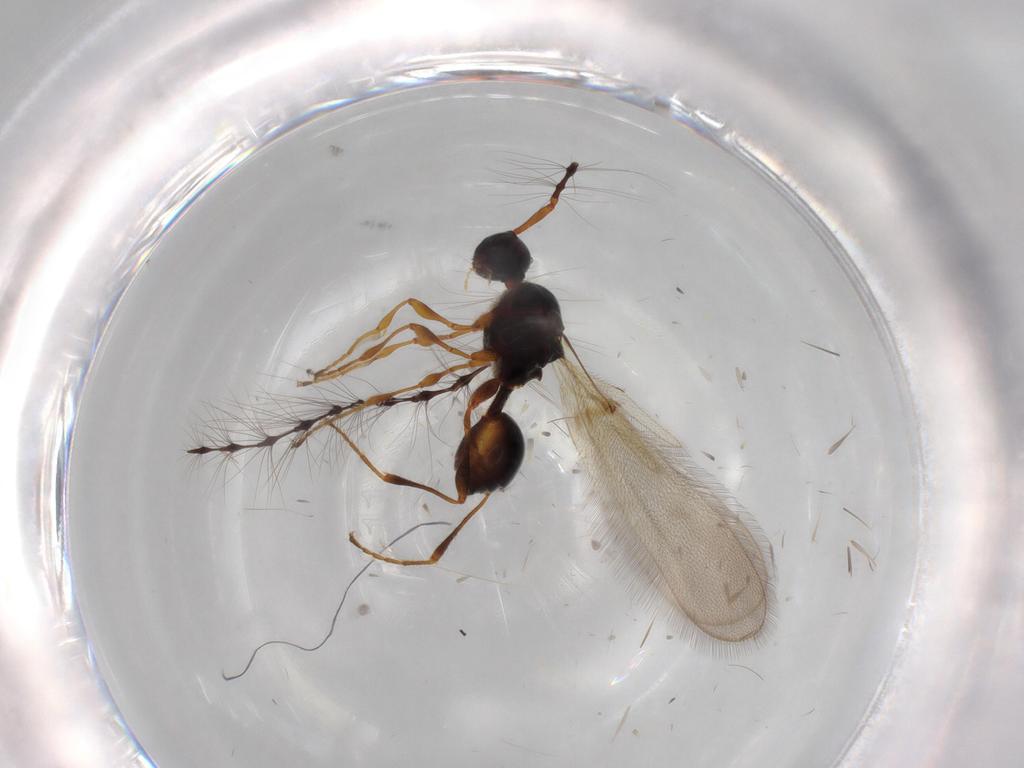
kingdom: Animalia
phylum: Arthropoda
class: Insecta
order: Hymenoptera
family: Diapriidae
